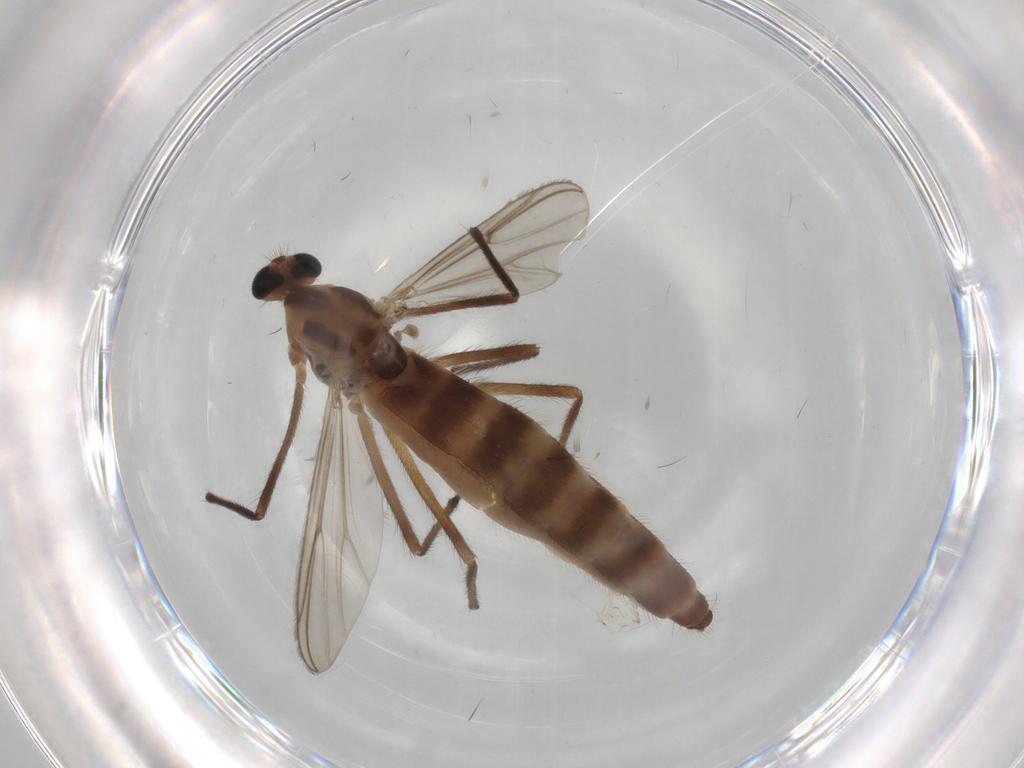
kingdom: Animalia
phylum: Arthropoda
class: Insecta
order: Diptera
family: Chironomidae
